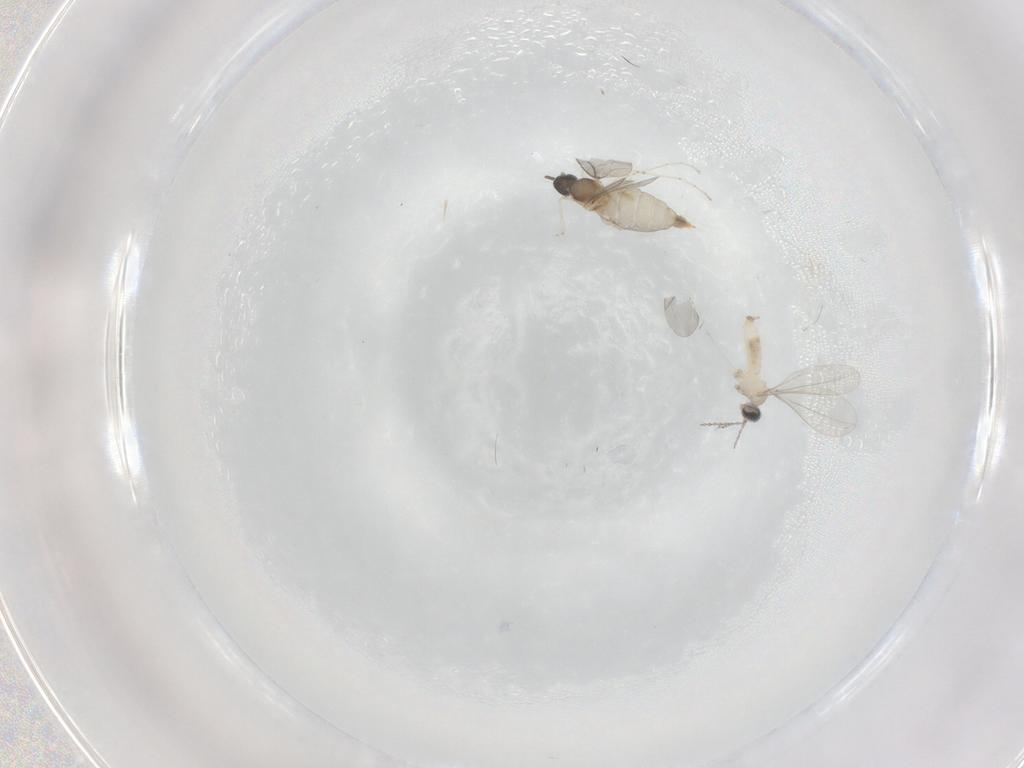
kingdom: Animalia
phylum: Arthropoda
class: Insecta
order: Diptera
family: Cecidomyiidae
